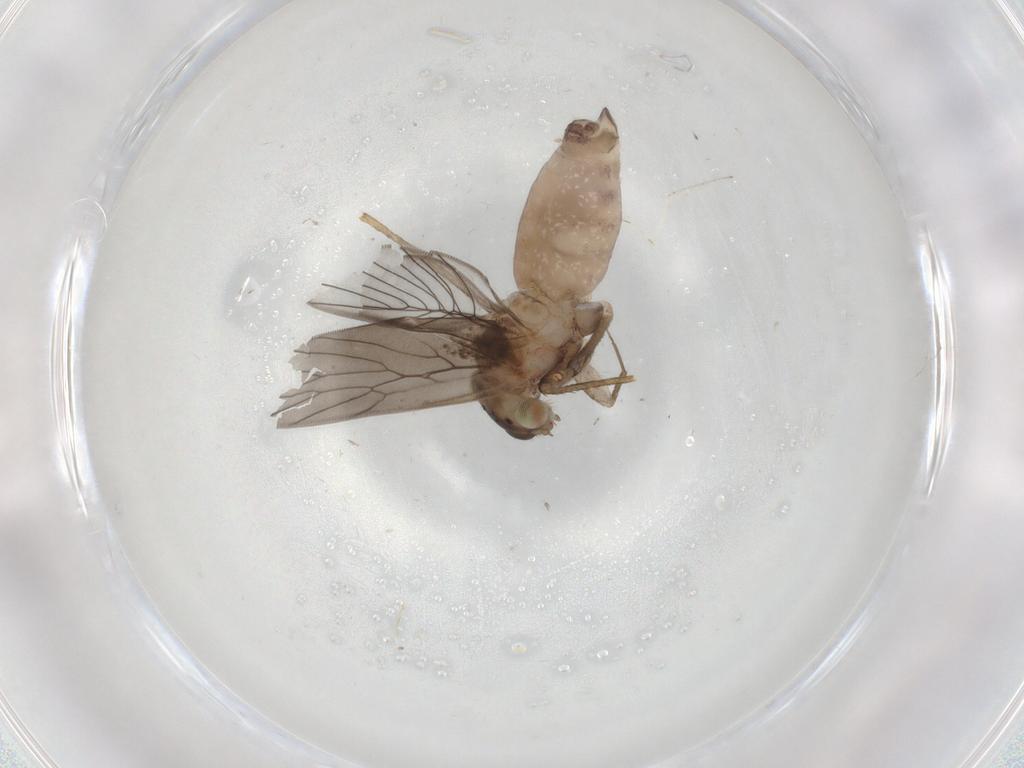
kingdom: Animalia
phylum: Arthropoda
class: Insecta
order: Psocodea
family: Lepidopsocidae
